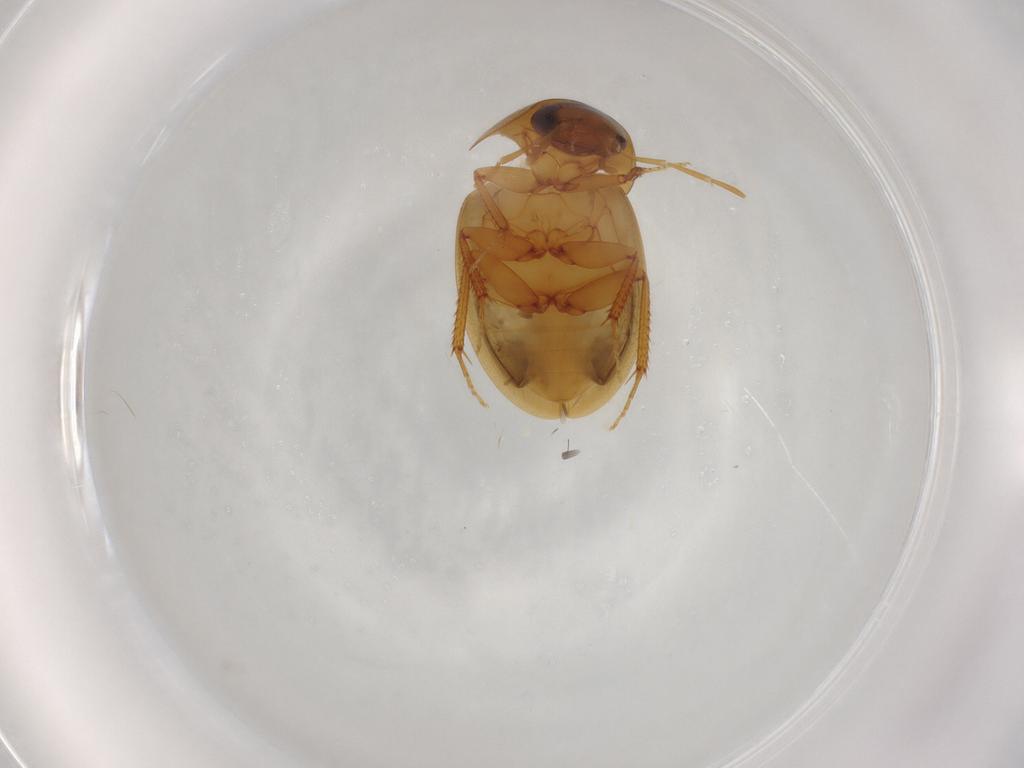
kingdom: Animalia
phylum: Arthropoda
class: Insecta
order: Coleoptera
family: Hydrophilidae
